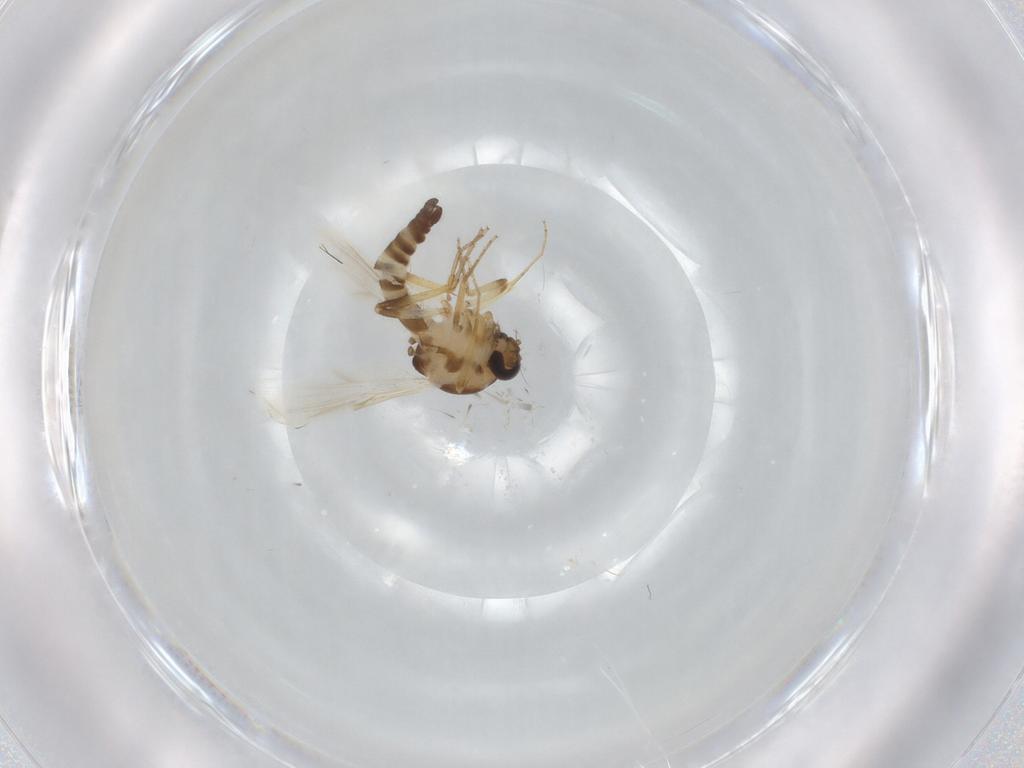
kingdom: Animalia
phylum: Arthropoda
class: Insecta
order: Diptera
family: Ceratopogonidae
